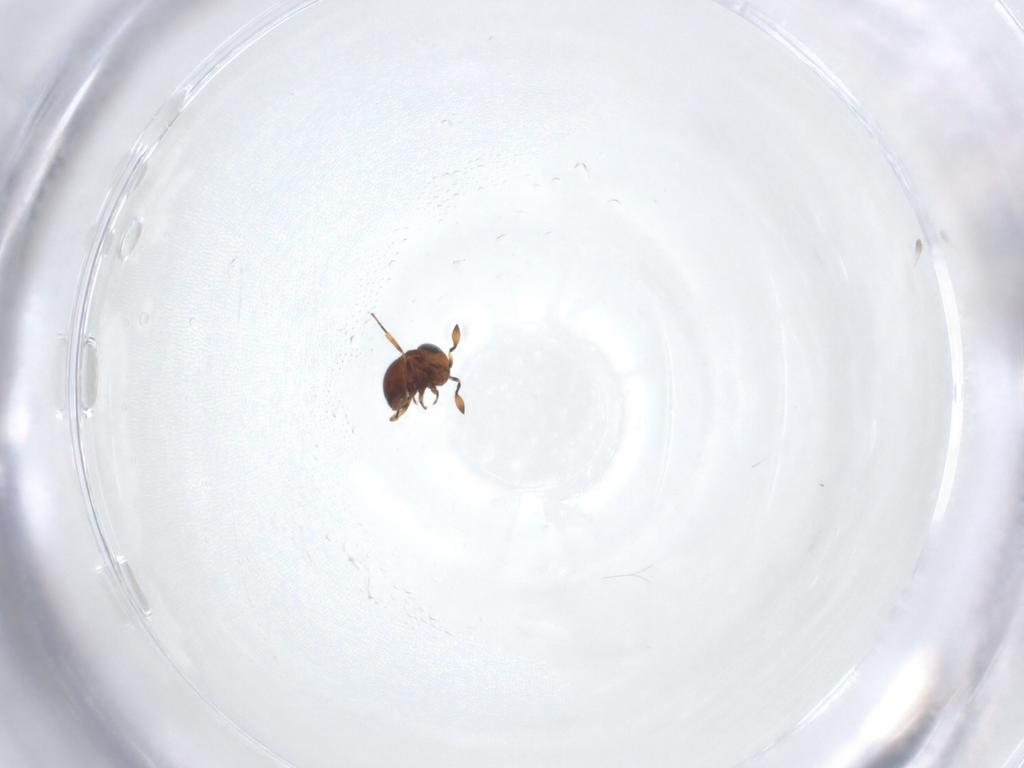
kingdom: Animalia
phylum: Arthropoda
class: Insecta
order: Hymenoptera
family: Scelionidae
